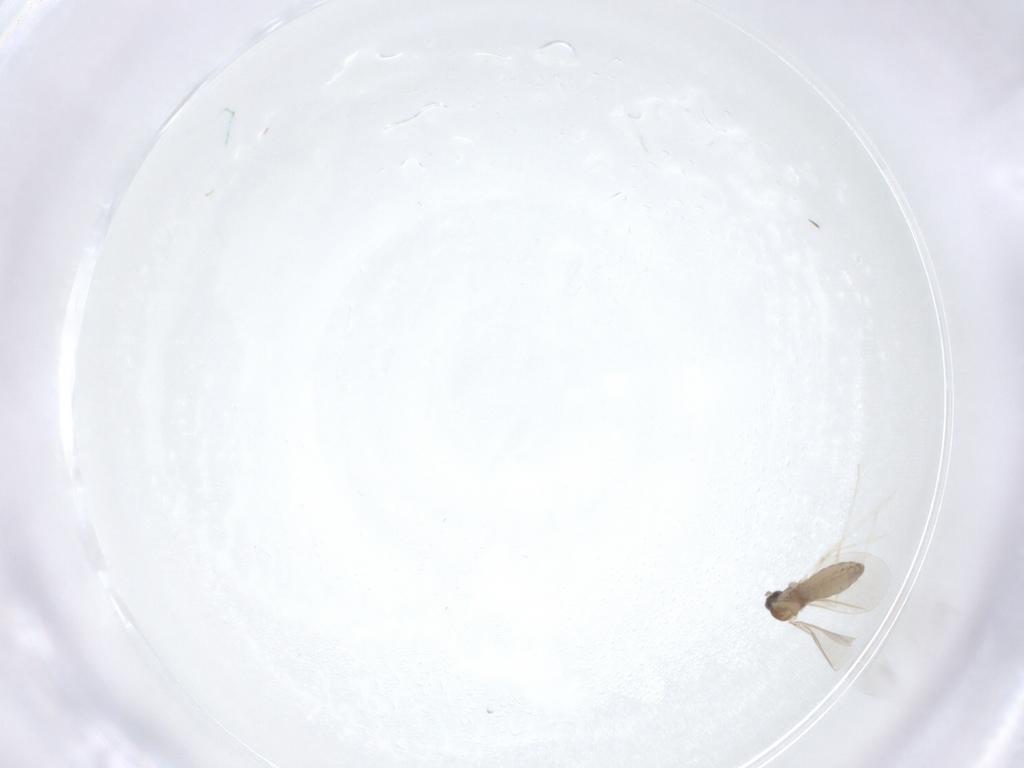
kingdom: Animalia
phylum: Arthropoda
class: Insecta
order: Diptera
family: Cecidomyiidae
